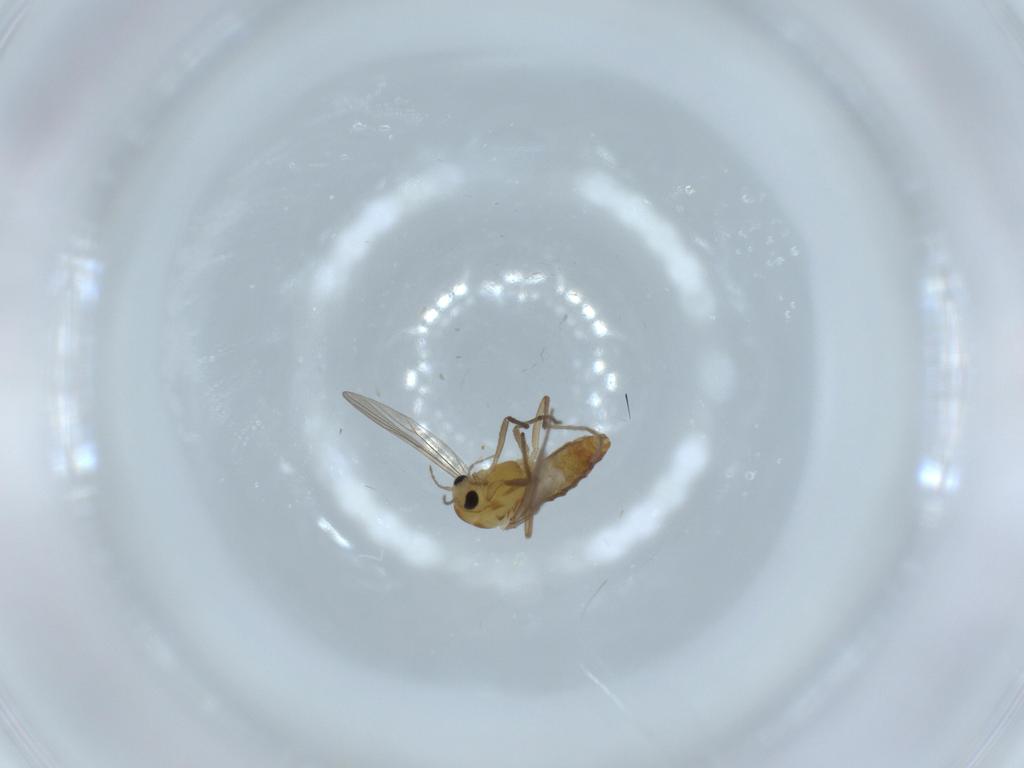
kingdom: Animalia
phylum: Arthropoda
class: Insecta
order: Diptera
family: Chironomidae
